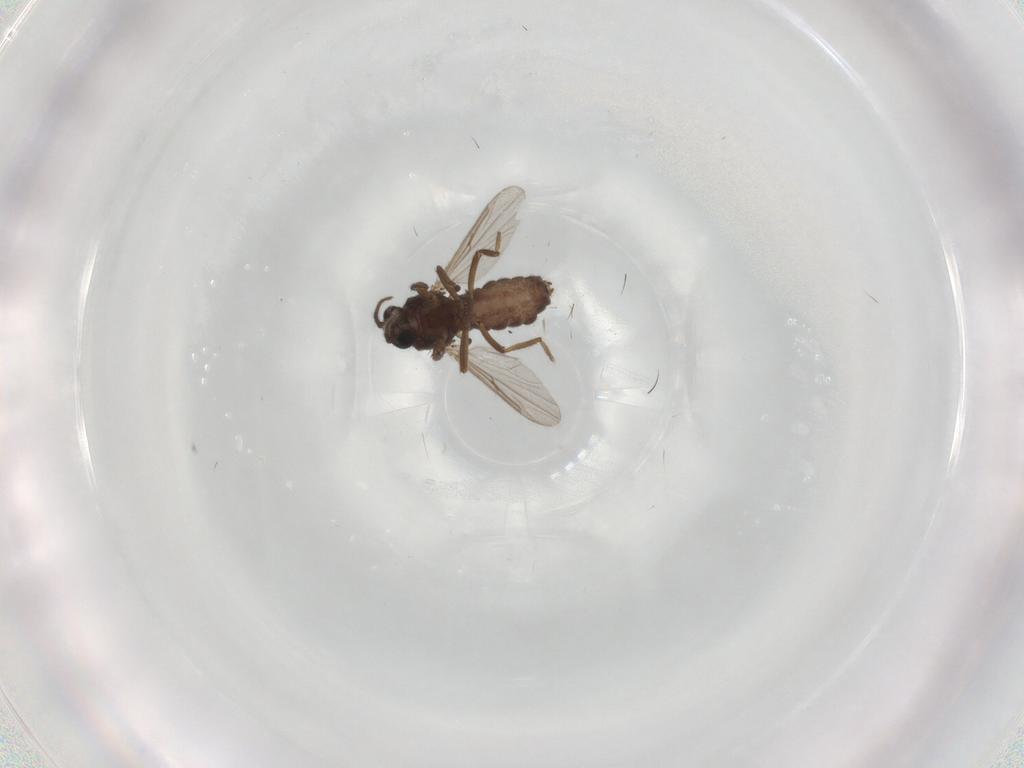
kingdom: Animalia
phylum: Arthropoda
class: Insecta
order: Diptera
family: Ceratopogonidae
